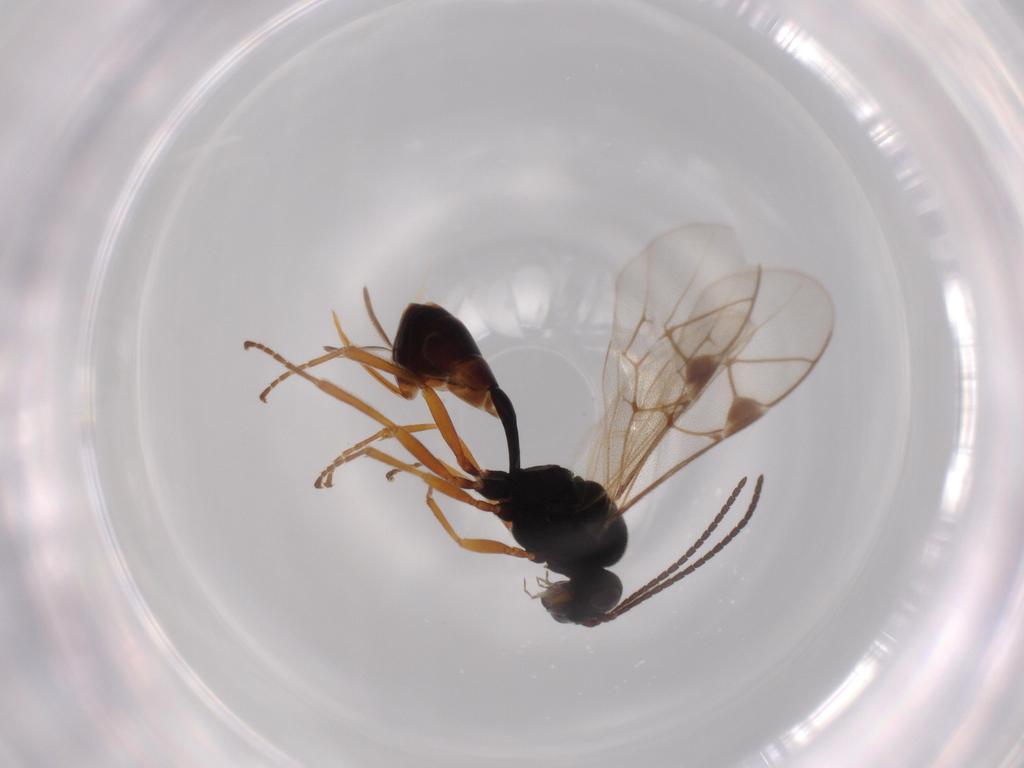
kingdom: Animalia
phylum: Arthropoda
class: Insecta
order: Hymenoptera
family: Ichneumonidae
